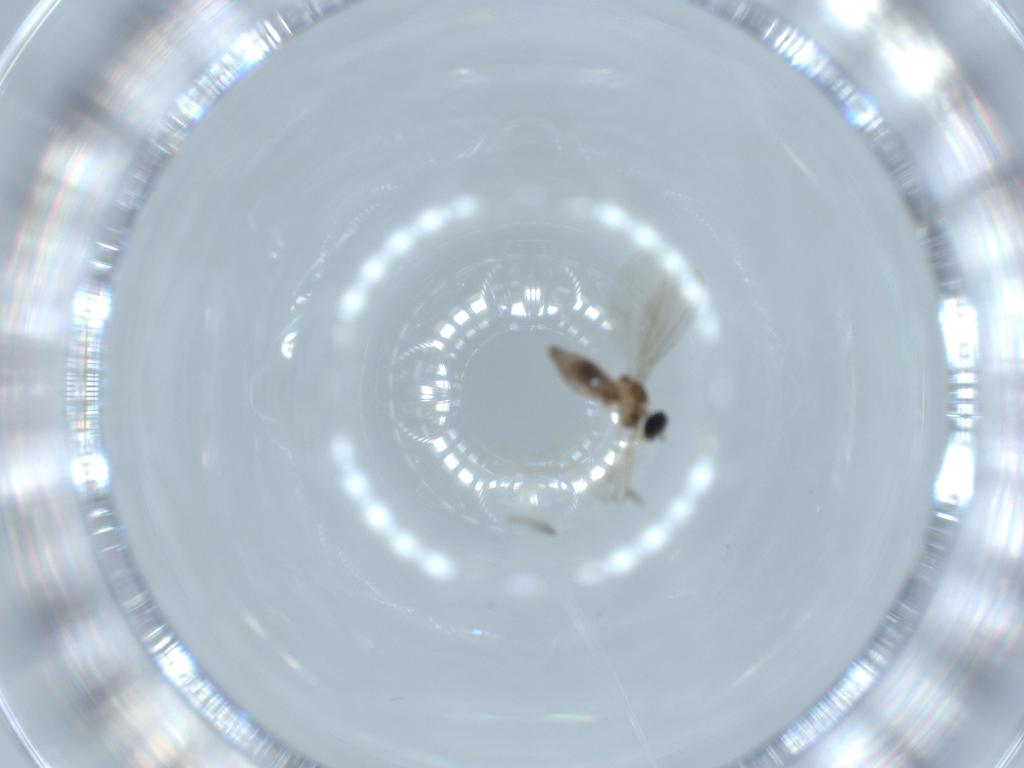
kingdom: Animalia
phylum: Arthropoda
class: Insecta
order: Diptera
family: Cecidomyiidae
